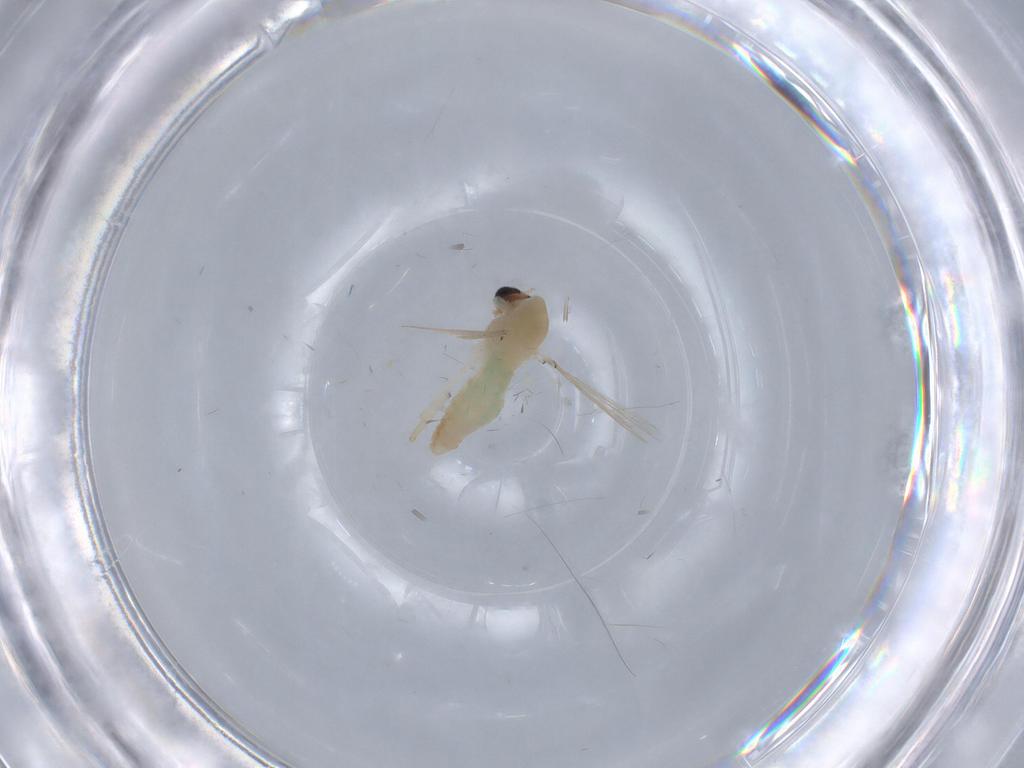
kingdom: Animalia
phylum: Arthropoda
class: Insecta
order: Diptera
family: Chironomidae
